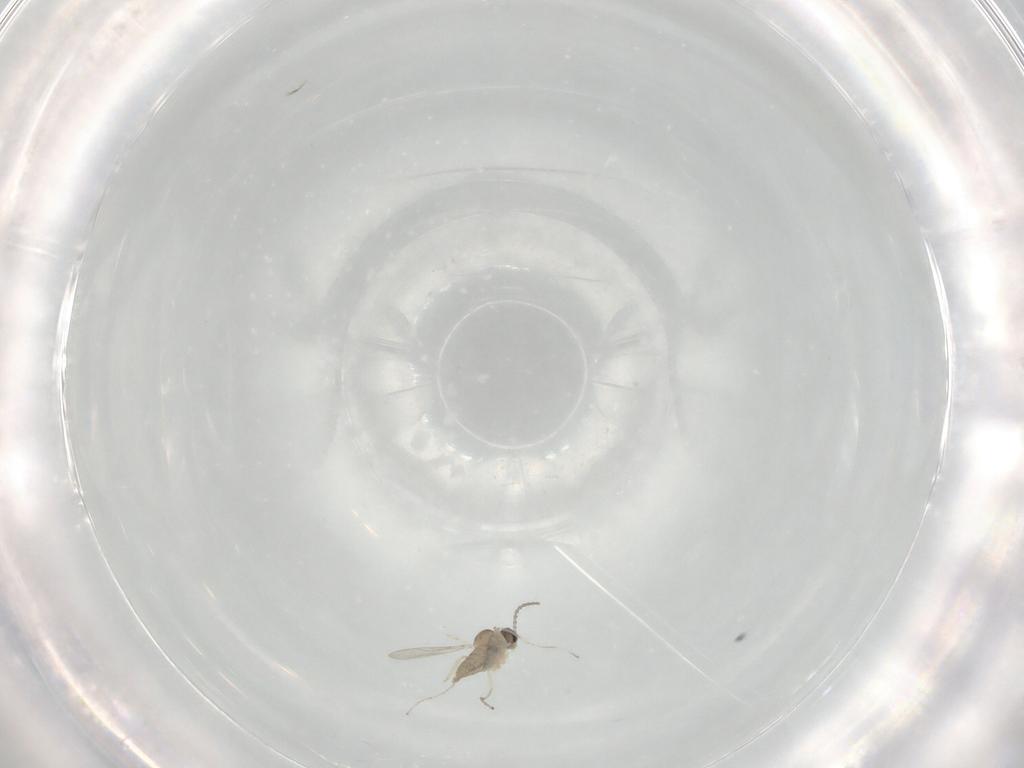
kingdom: Animalia
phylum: Arthropoda
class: Insecta
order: Diptera
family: Cecidomyiidae
